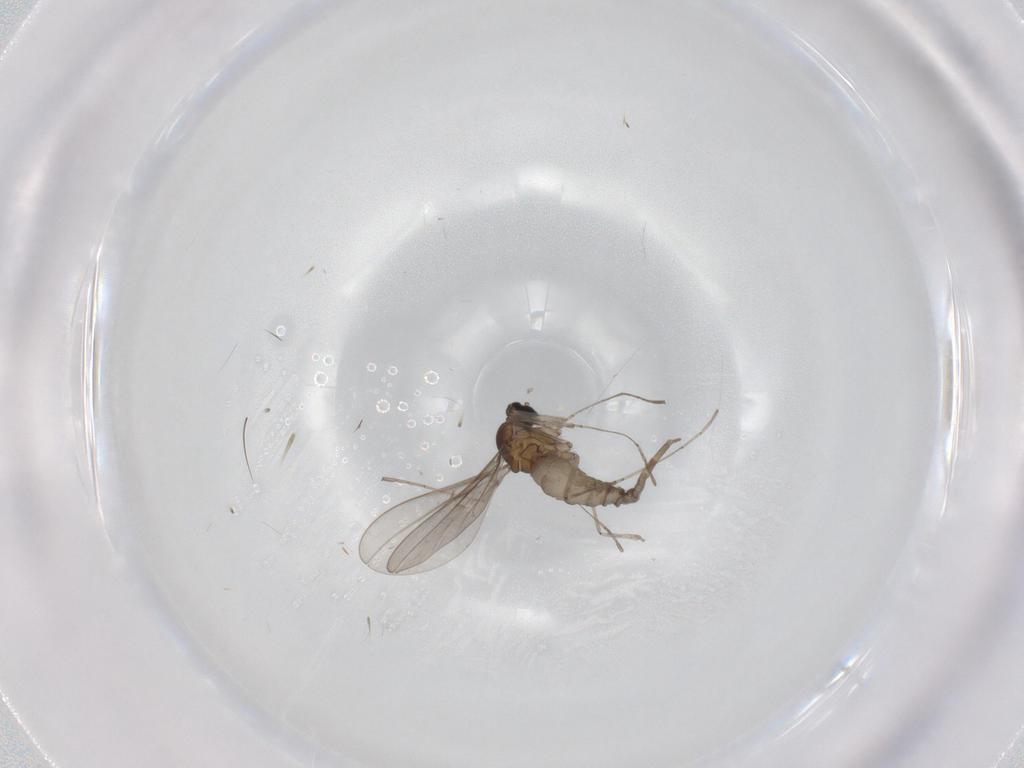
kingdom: Animalia
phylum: Arthropoda
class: Insecta
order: Diptera
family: Cecidomyiidae
